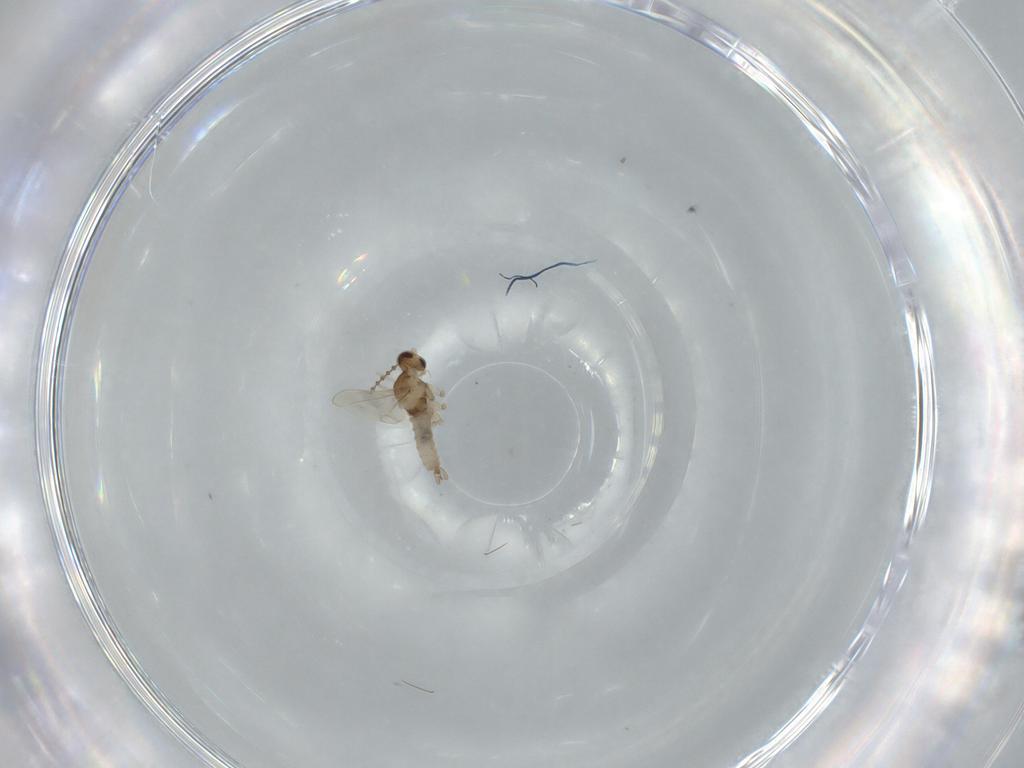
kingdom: Animalia
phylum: Arthropoda
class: Insecta
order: Diptera
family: Cecidomyiidae
